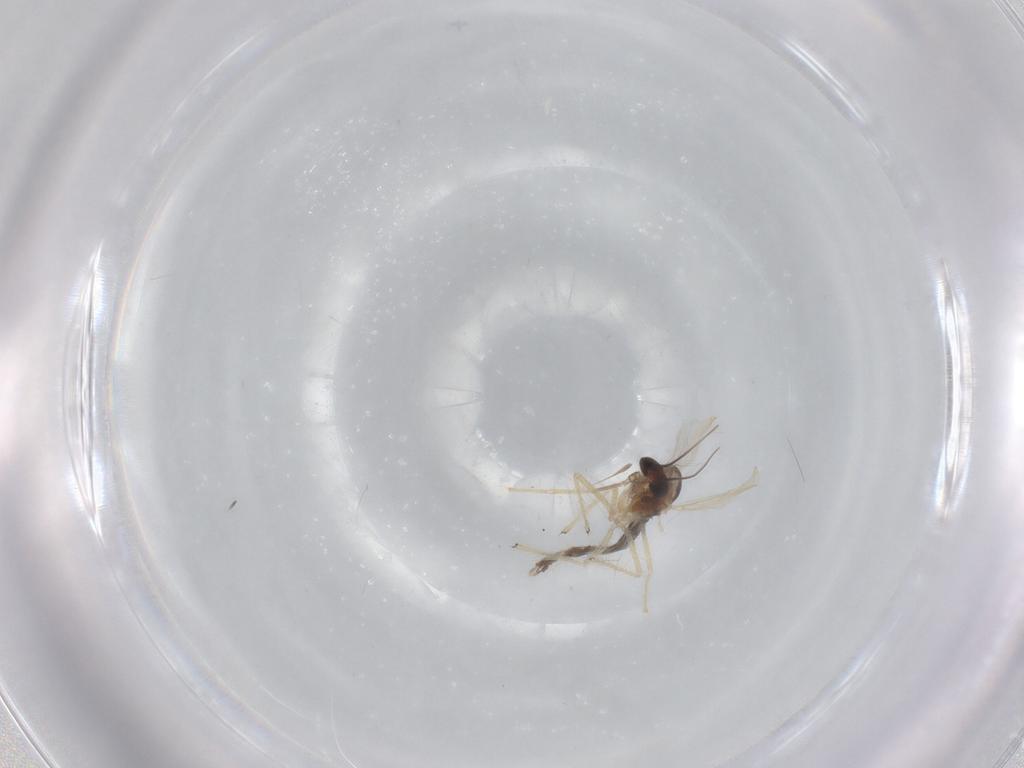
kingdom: Animalia
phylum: Arthropoda
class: Insecta
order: Diptera
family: Chironomidae
